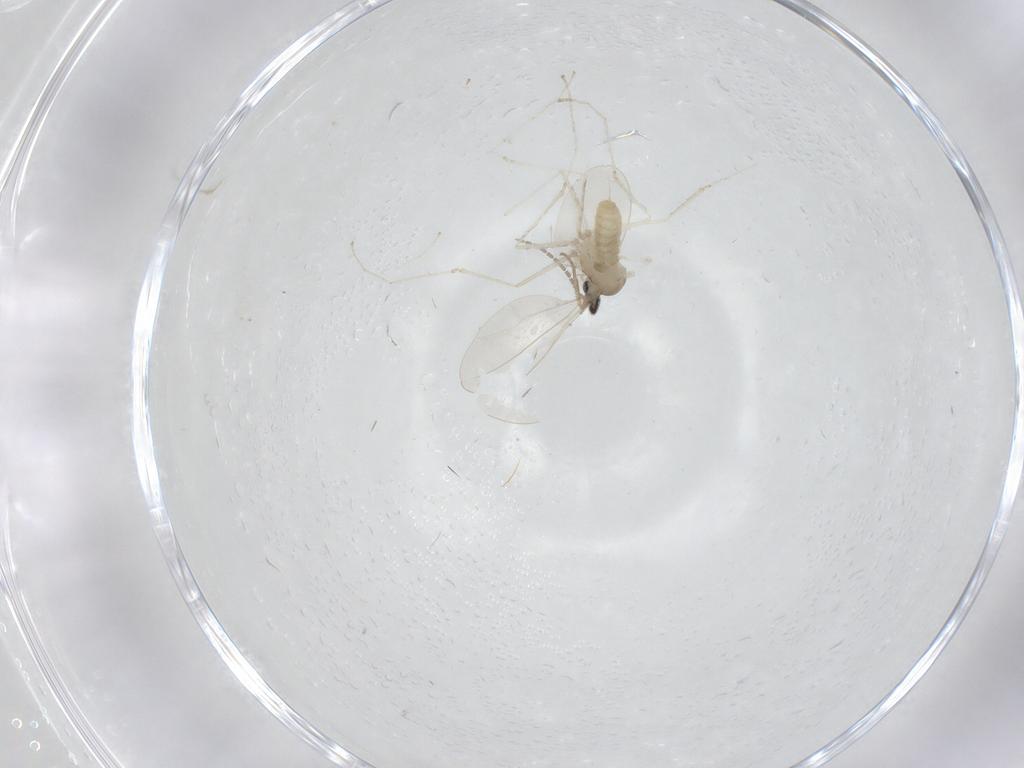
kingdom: Animalia
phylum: Arthropoda
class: Insecta
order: Diptera
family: Cecidomyiidae
